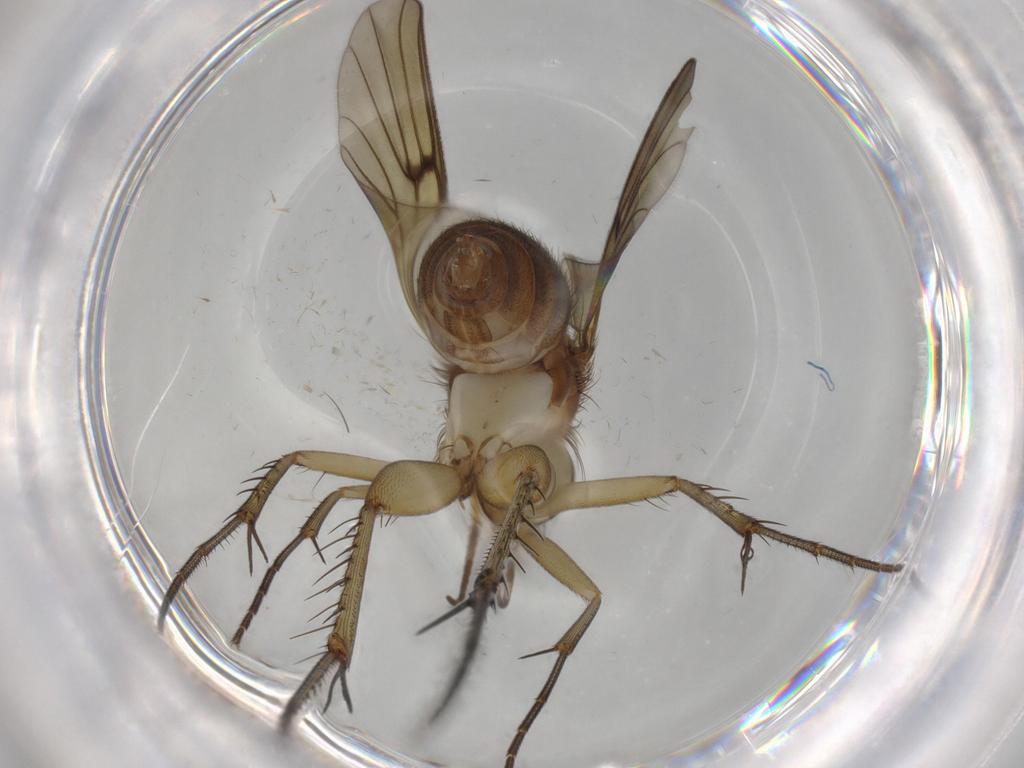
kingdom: Animalia
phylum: Arthropoda
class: Insecta
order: Diptera
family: Mycetophilidae
